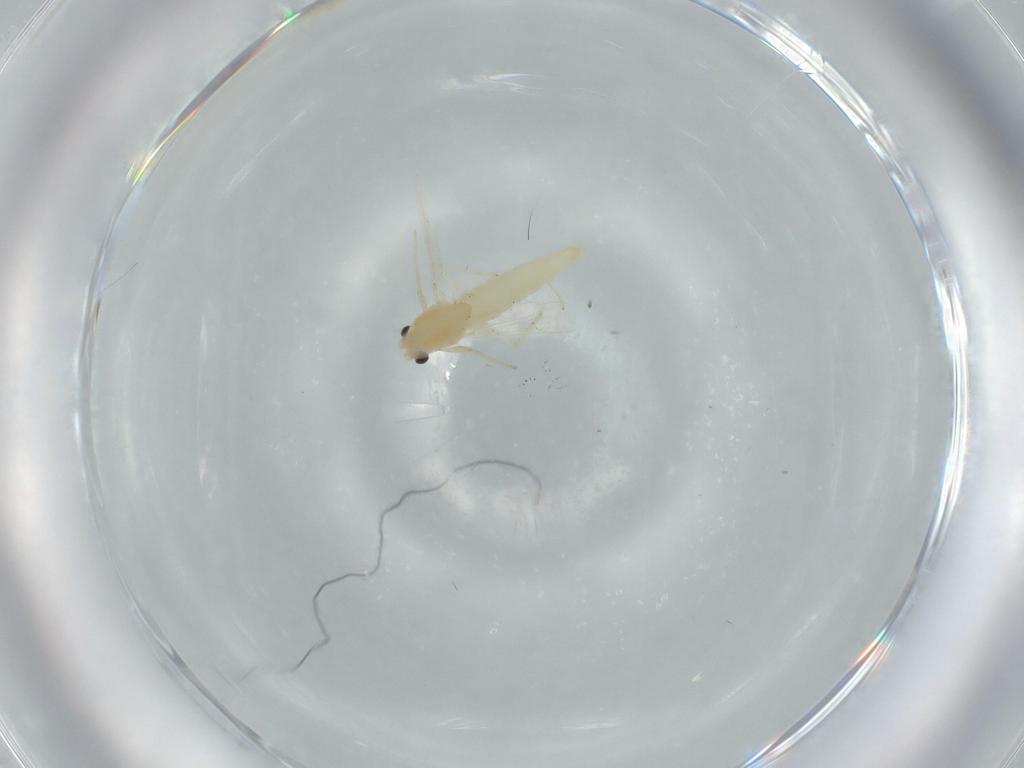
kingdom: Animalia
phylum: Arthropoda
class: Insecta
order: Diptera
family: Chironomidae
